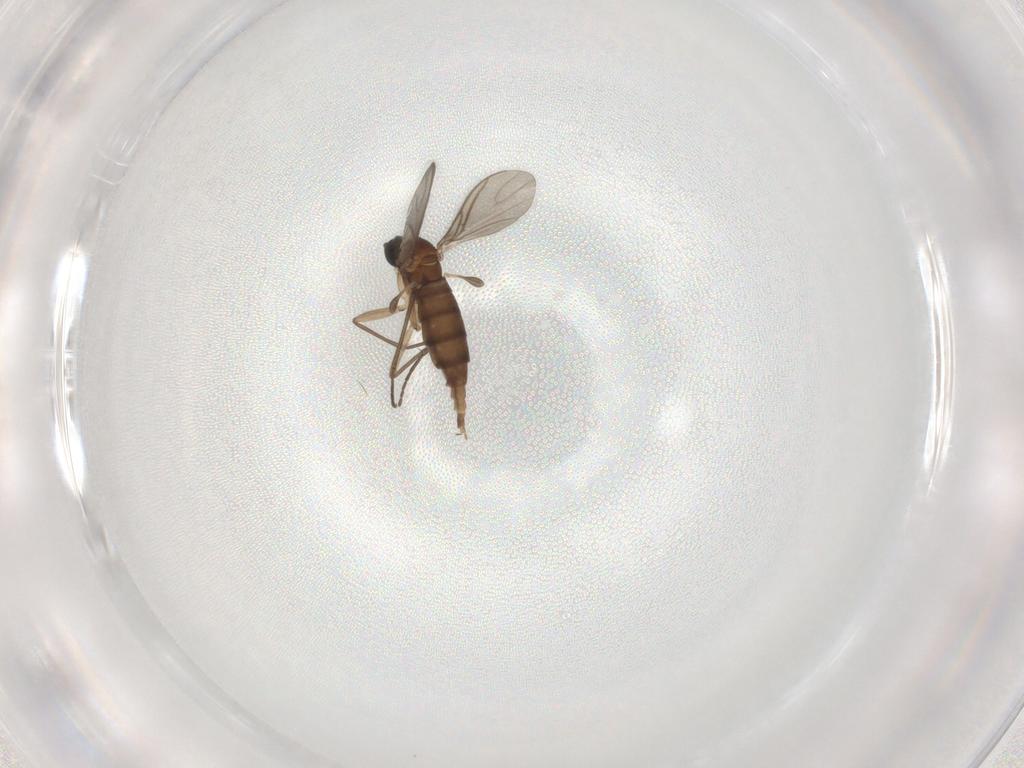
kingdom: Animalia
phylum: Arthropoda
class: Insecta
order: Diptera
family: Sciaridae
